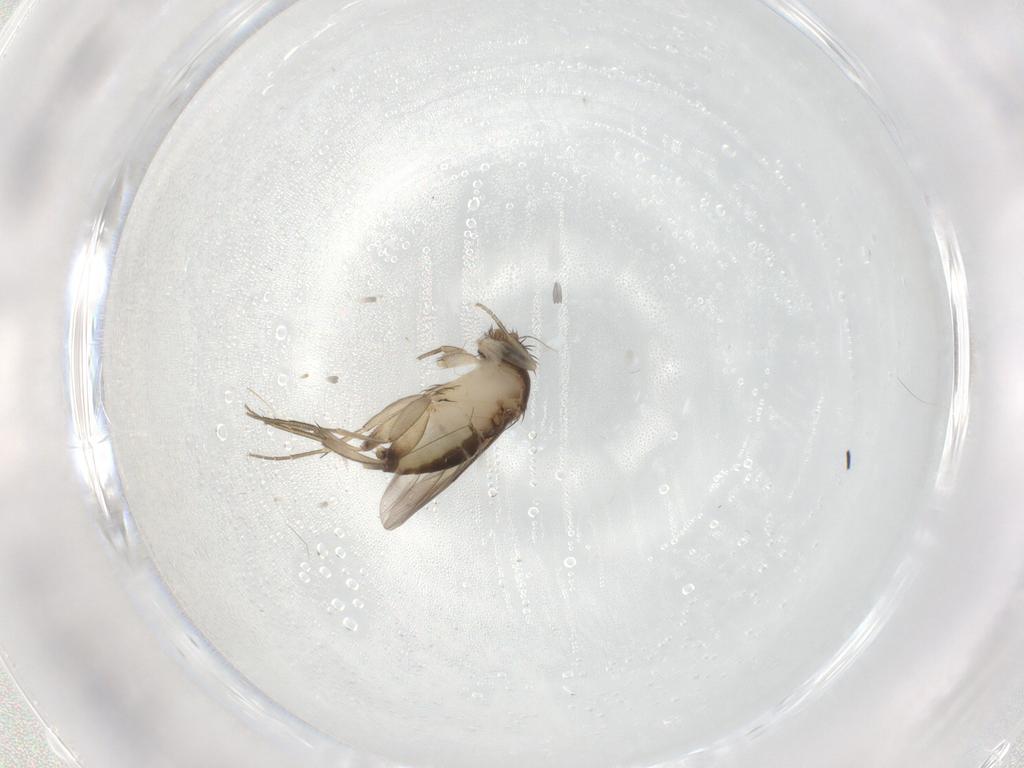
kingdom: Animalia
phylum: Arthropoda
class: Insecta
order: Diptera
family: Phoridae
